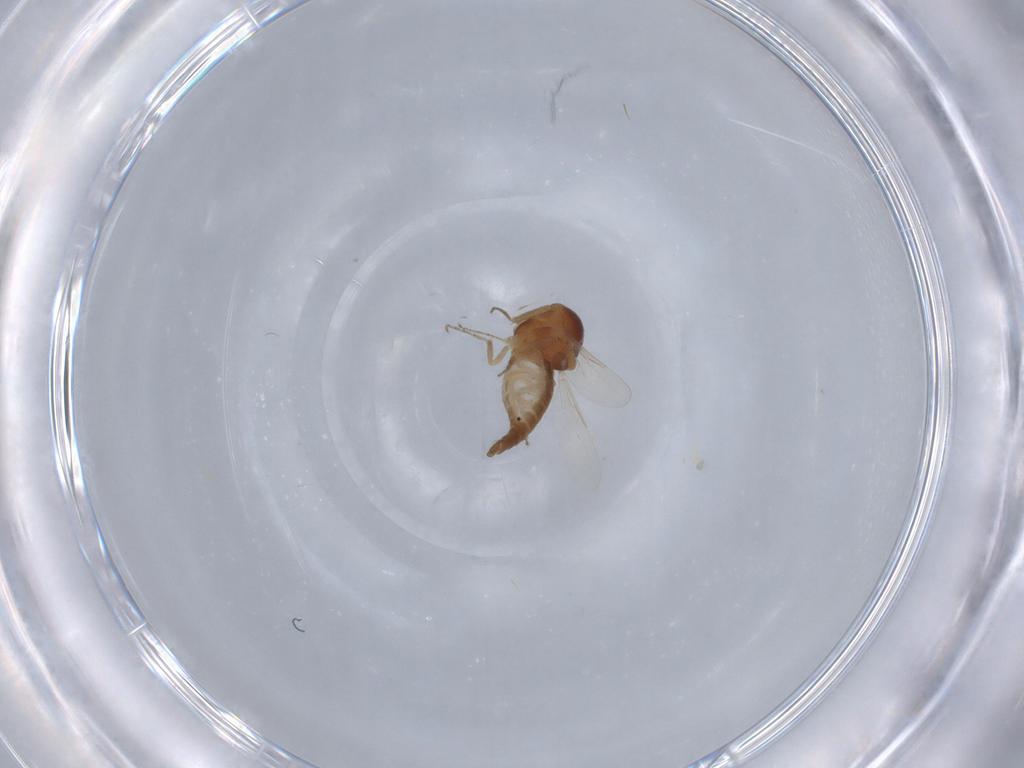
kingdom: Animalia
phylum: Arthropoda
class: Insecta
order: Diptera
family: Ceratopogonidae
